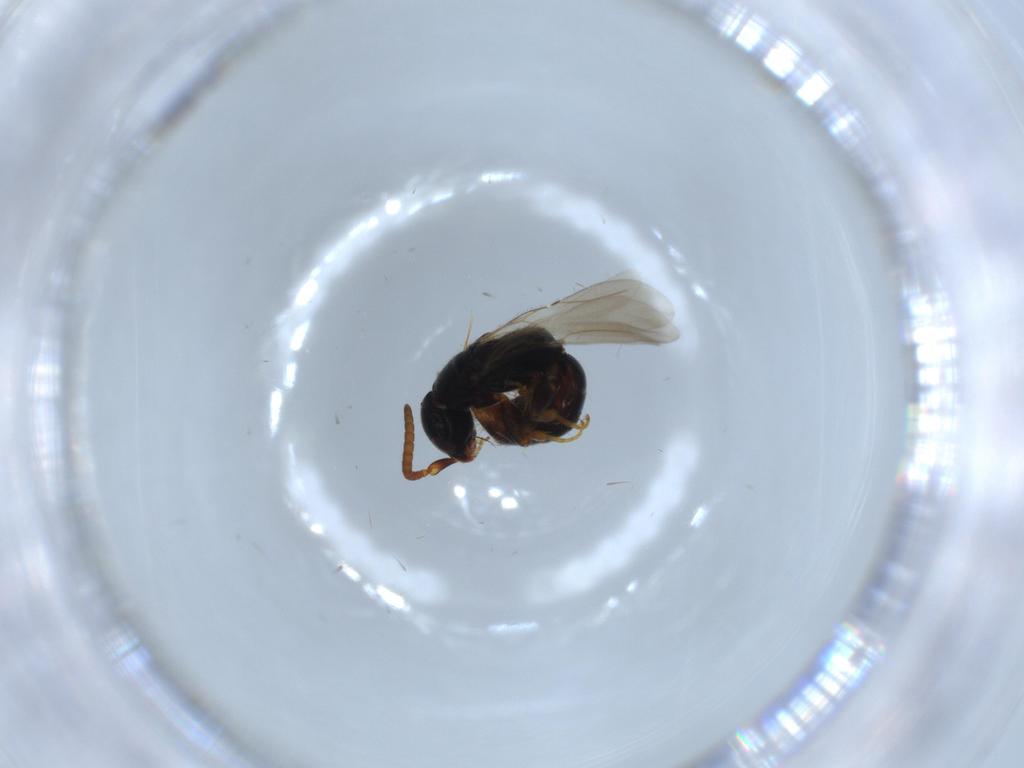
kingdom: Animalia
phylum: Arthropoda
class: Insecta
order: Hymenoptera
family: Bethylidae
